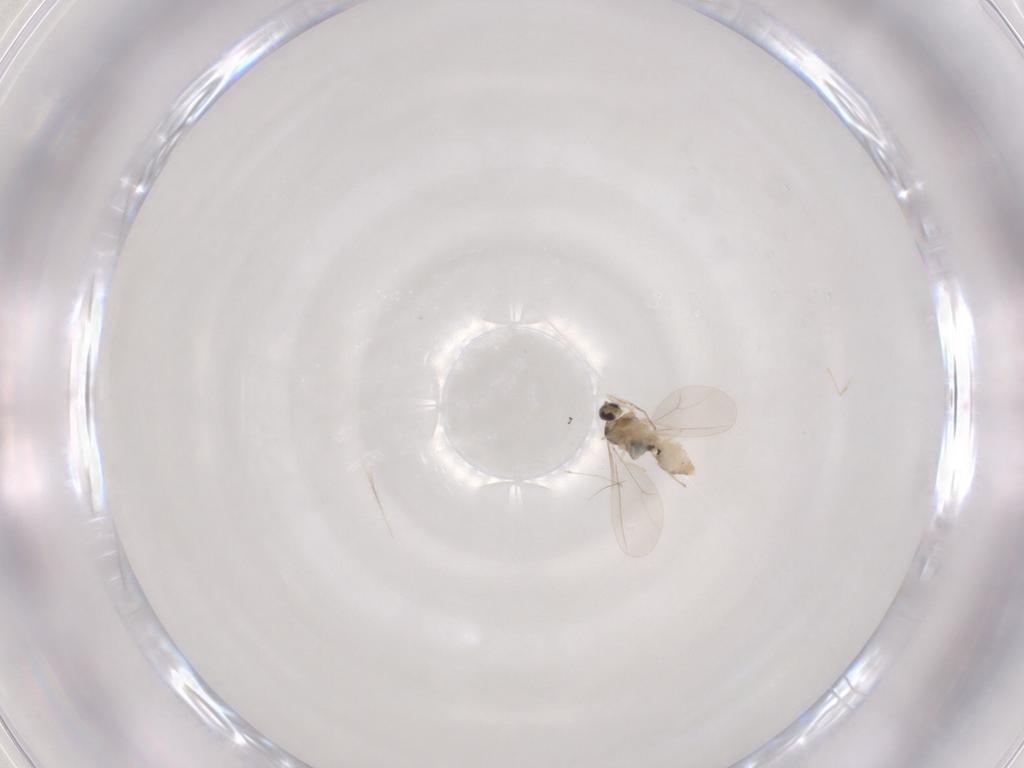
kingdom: Animalia
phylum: Arthropoda
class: Insecta
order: Diptera
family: Cecidomyiidae
